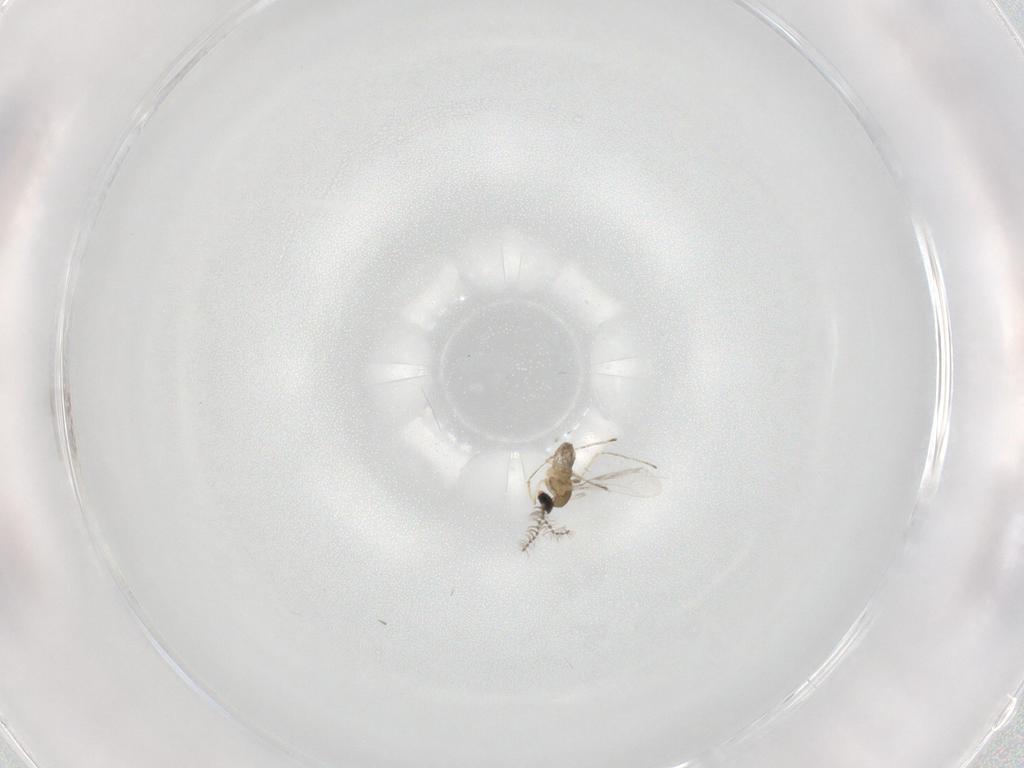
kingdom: Animalia
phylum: Arthropoda
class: Insecta
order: Diptera
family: Cecidomyiidae
